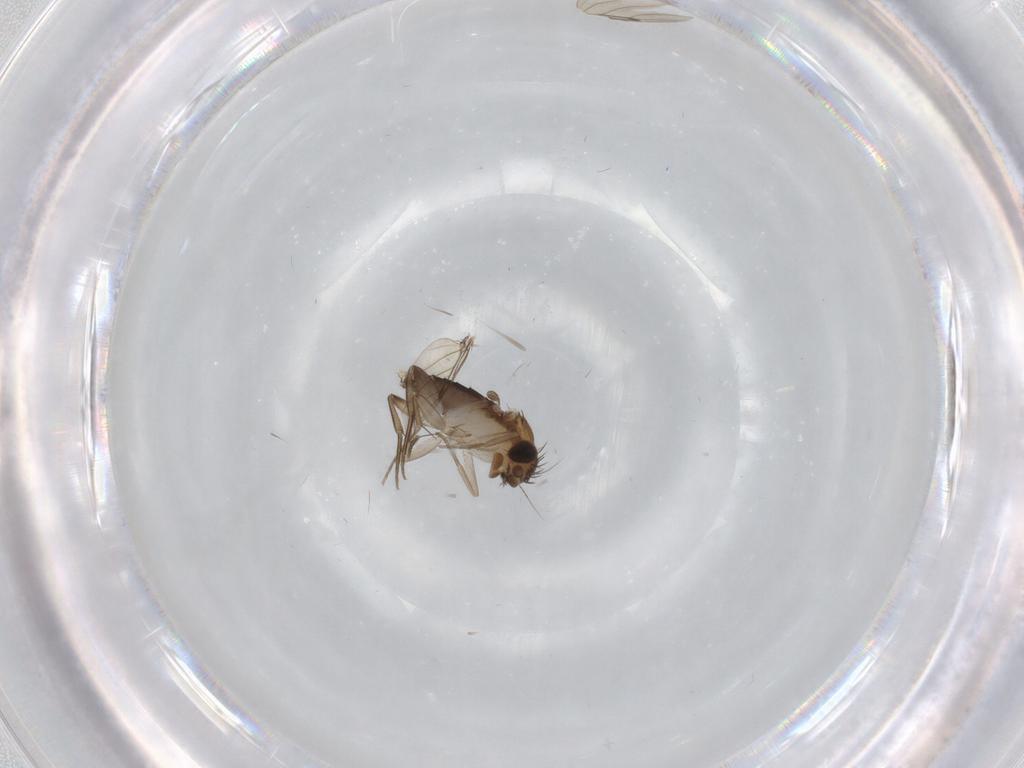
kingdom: Animalia
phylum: Arthropoda
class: Insecta
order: Diptera
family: Phoridae
